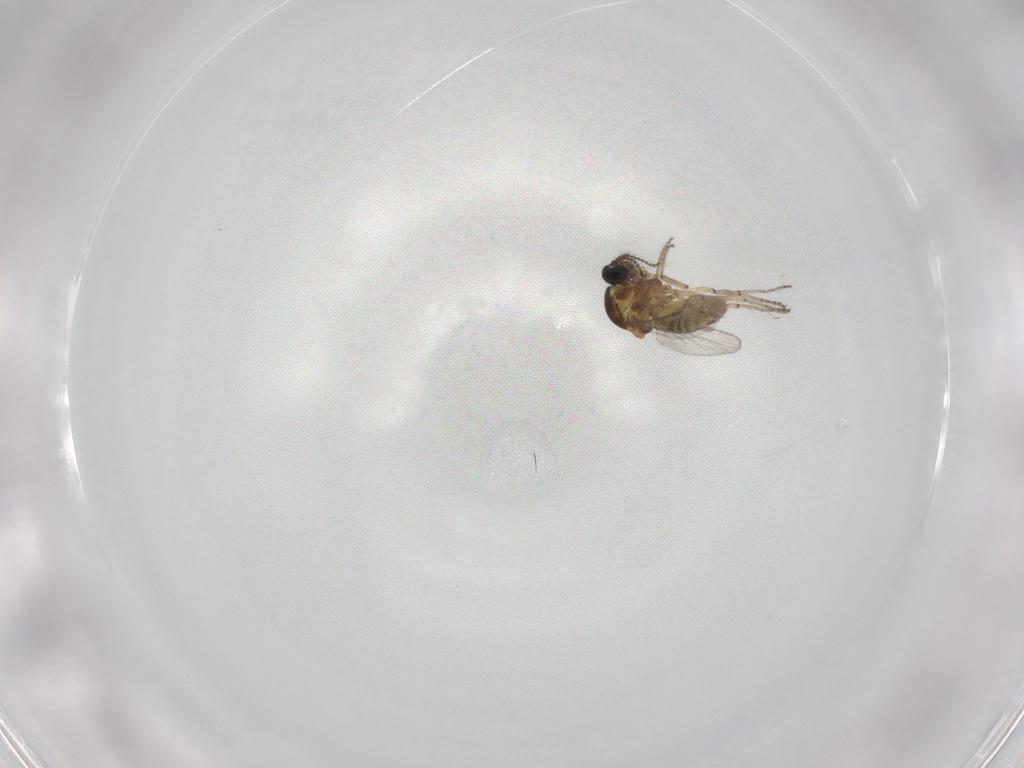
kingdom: Animalia
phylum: Arthropoda
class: Insecta
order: Diptera
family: Ceratopogonidae
